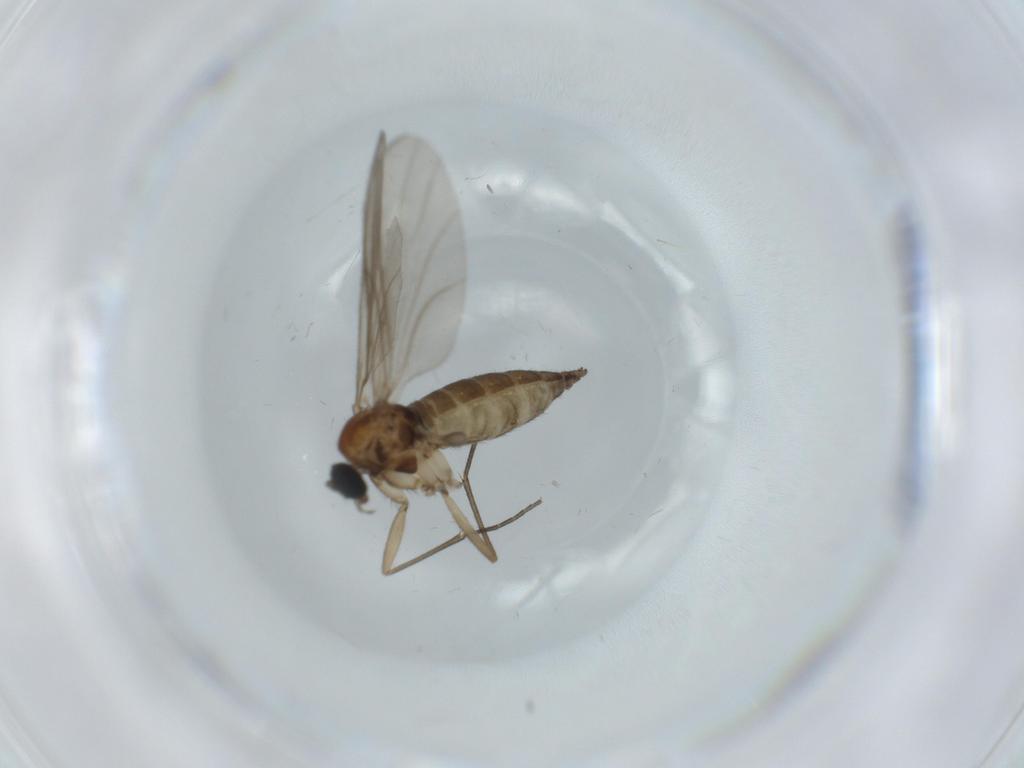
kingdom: Animalia
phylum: Arthropoda
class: Insecta
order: Diptera
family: Sciaridae
